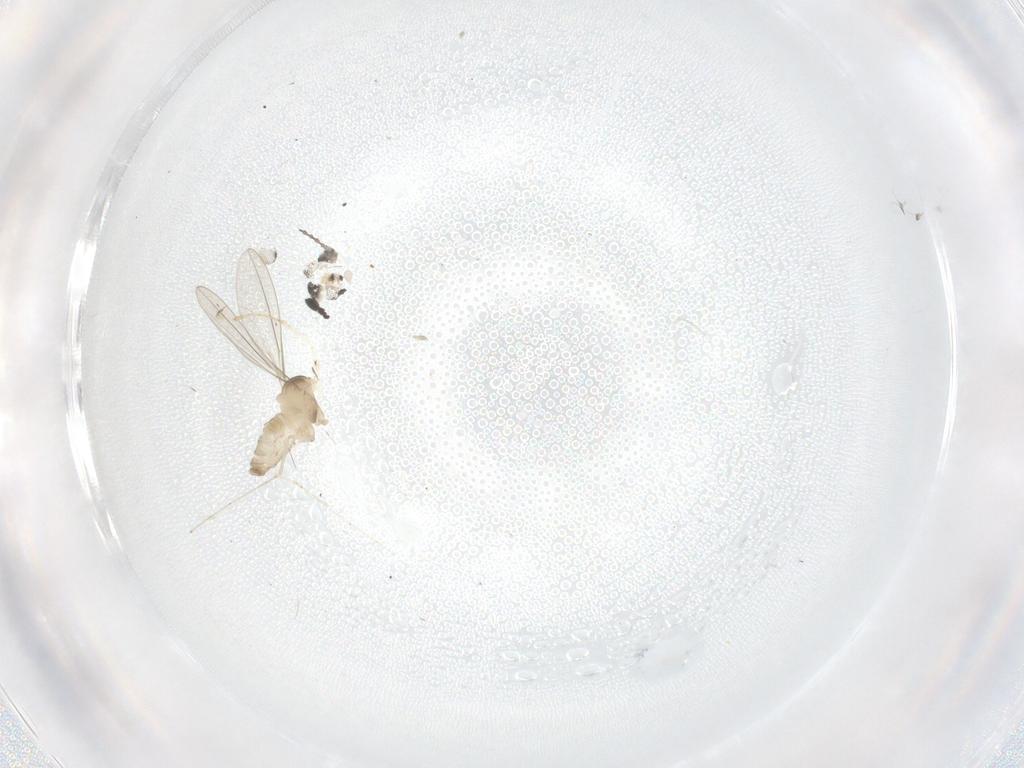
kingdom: Animalia
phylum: Arthropoda
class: Insecta
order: Diptera
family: Cecidomyiidae
